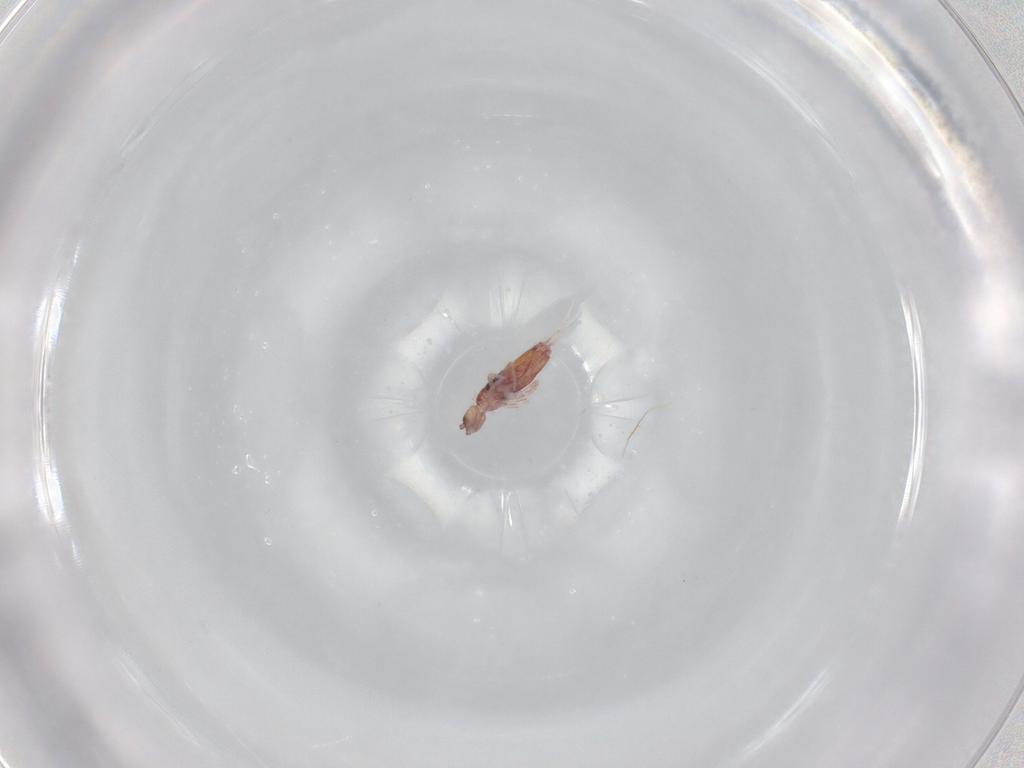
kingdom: Animalia
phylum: Arthropoda
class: Collembola
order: Entomobryomorpha
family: Entomobryidae
